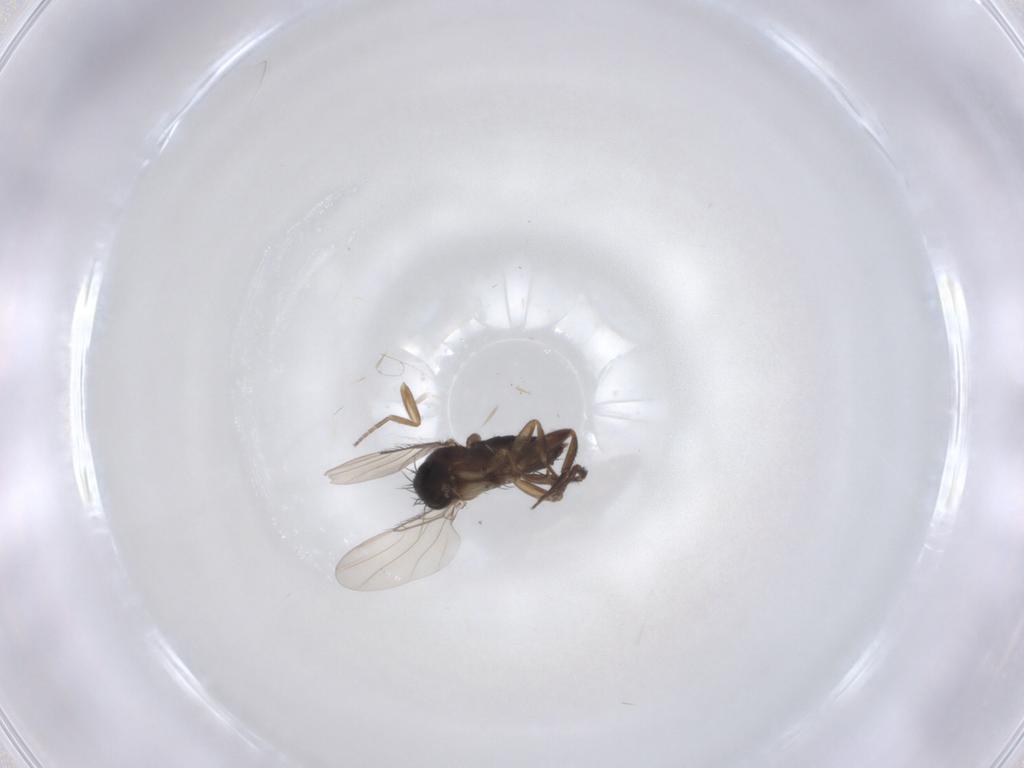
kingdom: Animalia
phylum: Arthropoda
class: Insecta
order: Diptera
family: Phoridae
